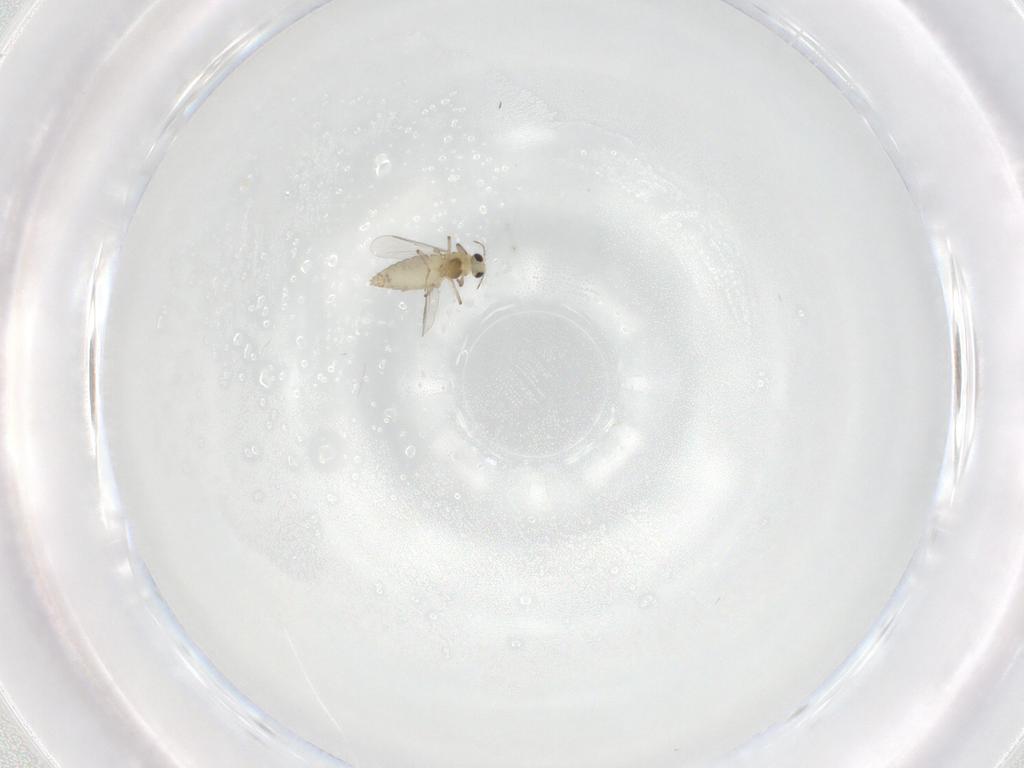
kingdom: Animalia
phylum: Arthropoda
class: Insecta
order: Diptera
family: Chironomidae
